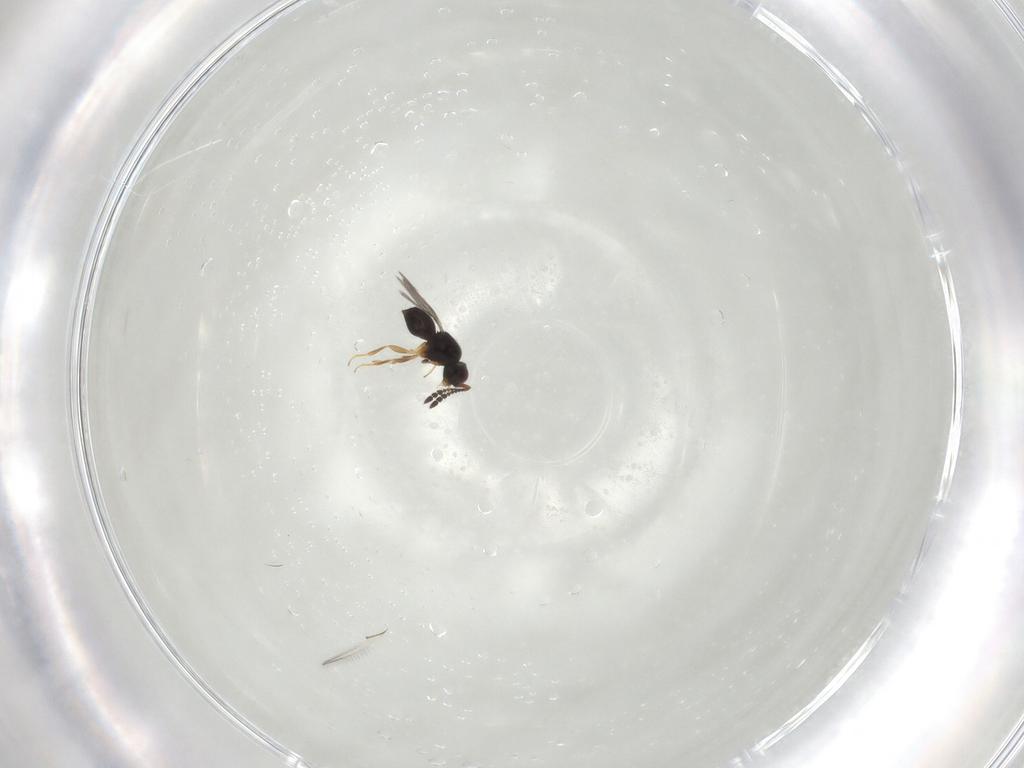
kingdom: Animalia
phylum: Arthropoda
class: Insecta
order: Hymenoptera
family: Ceraphronidae
